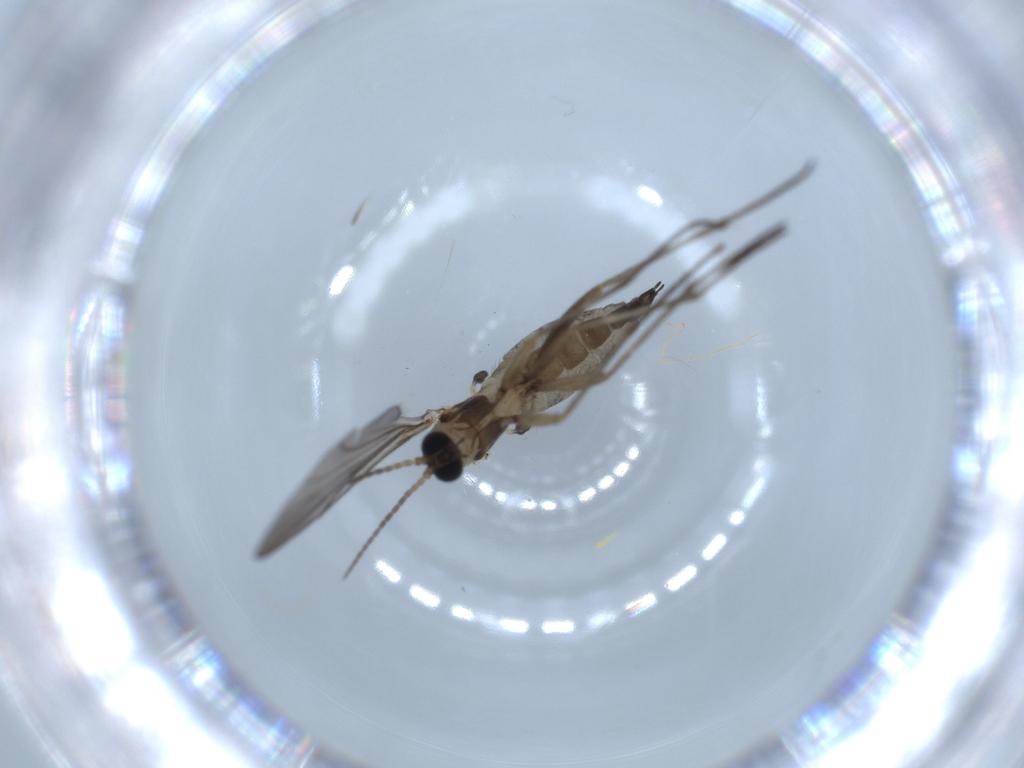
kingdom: Animalia
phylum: Arthropoda
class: Insecta
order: Diptera
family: Sciaridae
